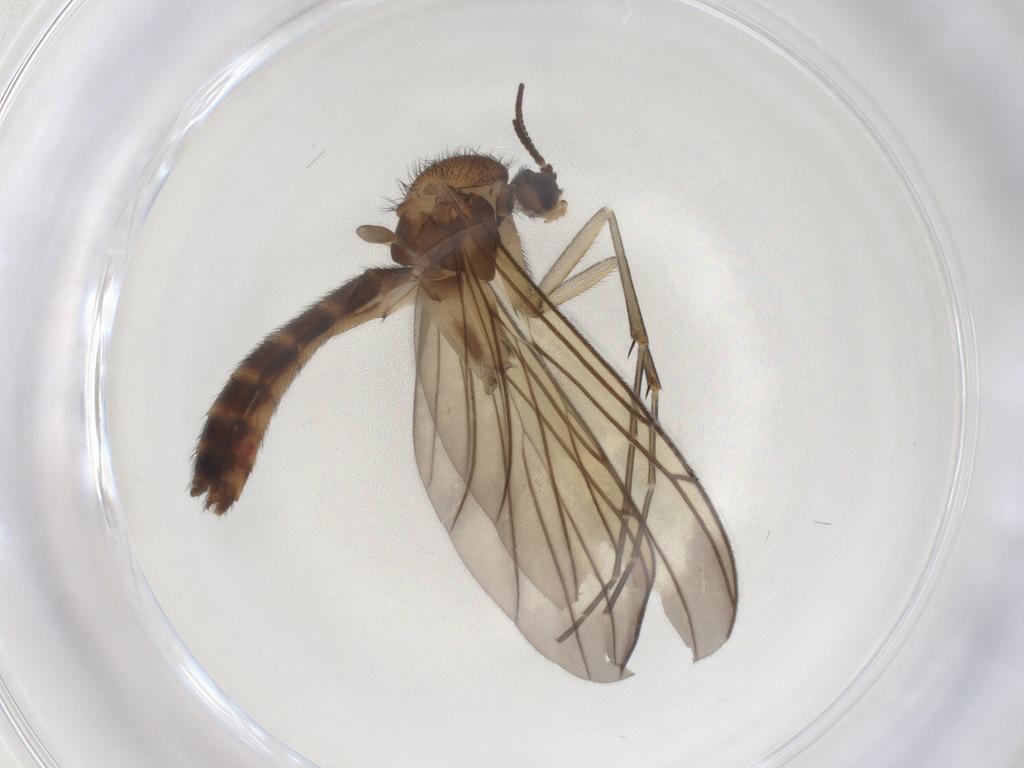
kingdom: Animalia
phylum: Arthropoda
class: Insecta
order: Diptera
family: Keroplatidae
